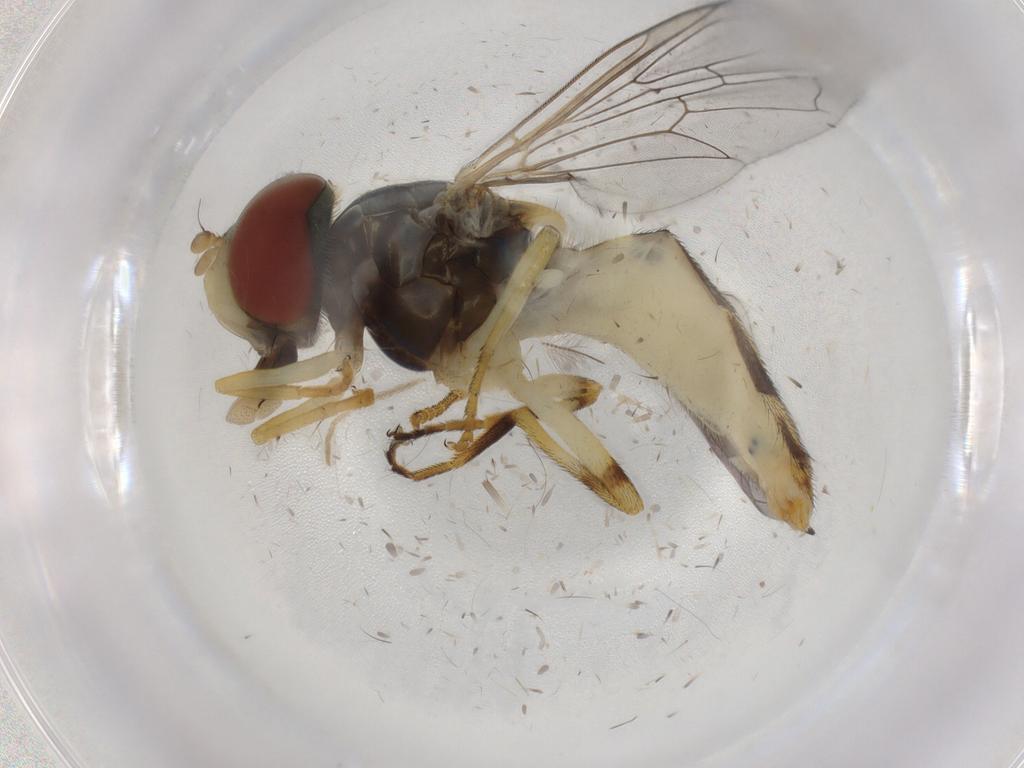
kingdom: Animalia
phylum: Arthropoda
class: Insecta
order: Diptera
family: Syrphidae
